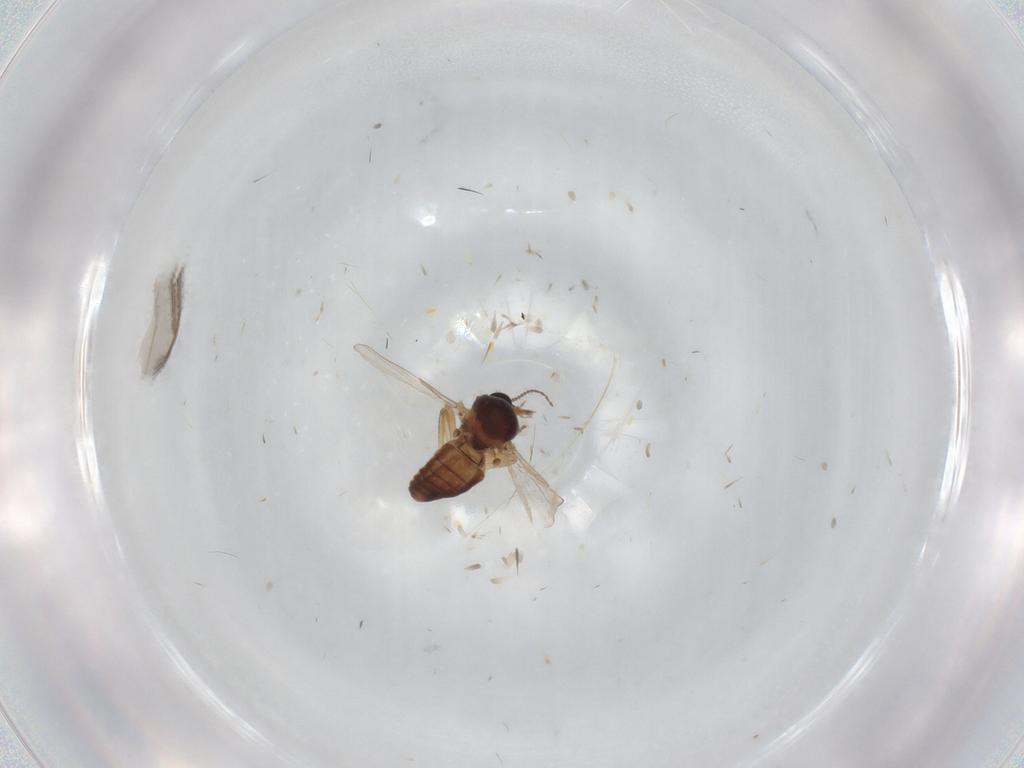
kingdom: Animalia
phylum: Arthropoda
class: Insecta
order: Diptera
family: Ceratopogonidae
